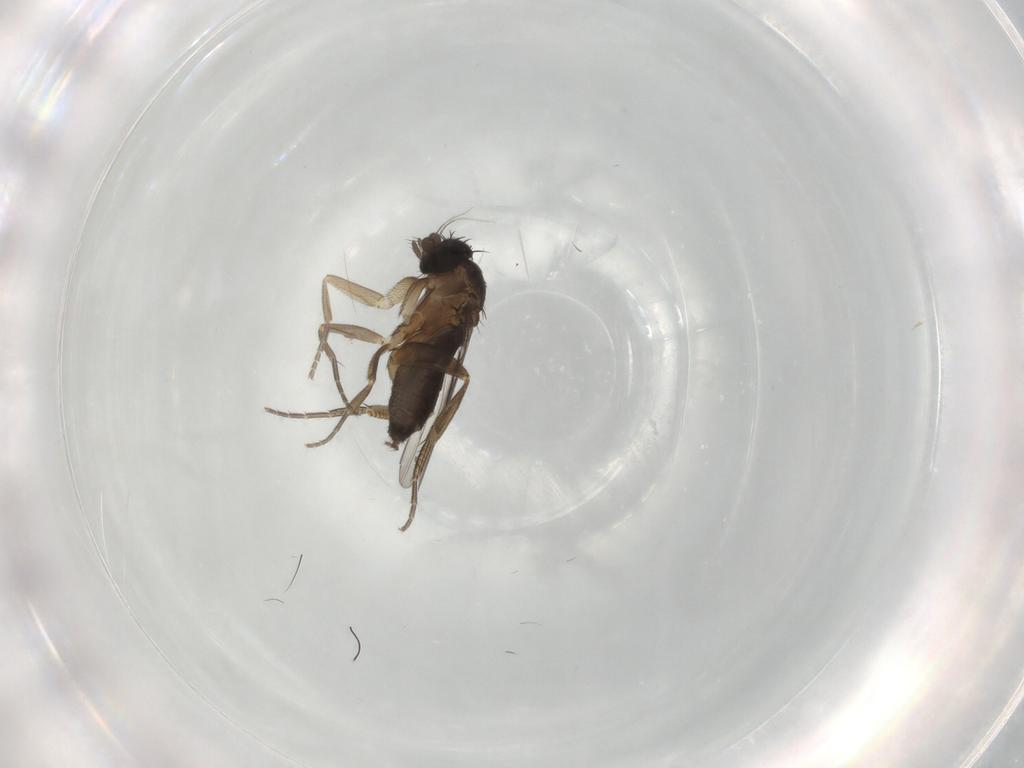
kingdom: Animalia
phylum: Arthropoda
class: Insecta
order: Diptera
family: Phoridae
